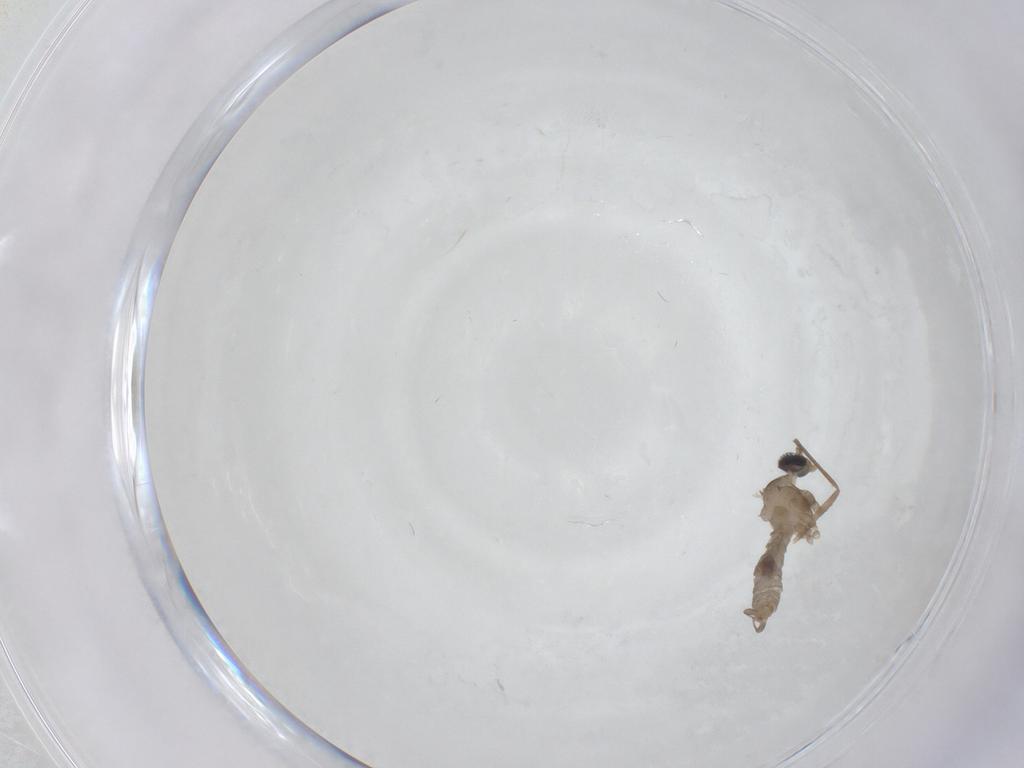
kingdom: Animalia
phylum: Arthropoda
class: Insecta
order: Diptera
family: Cecidomyiidae
